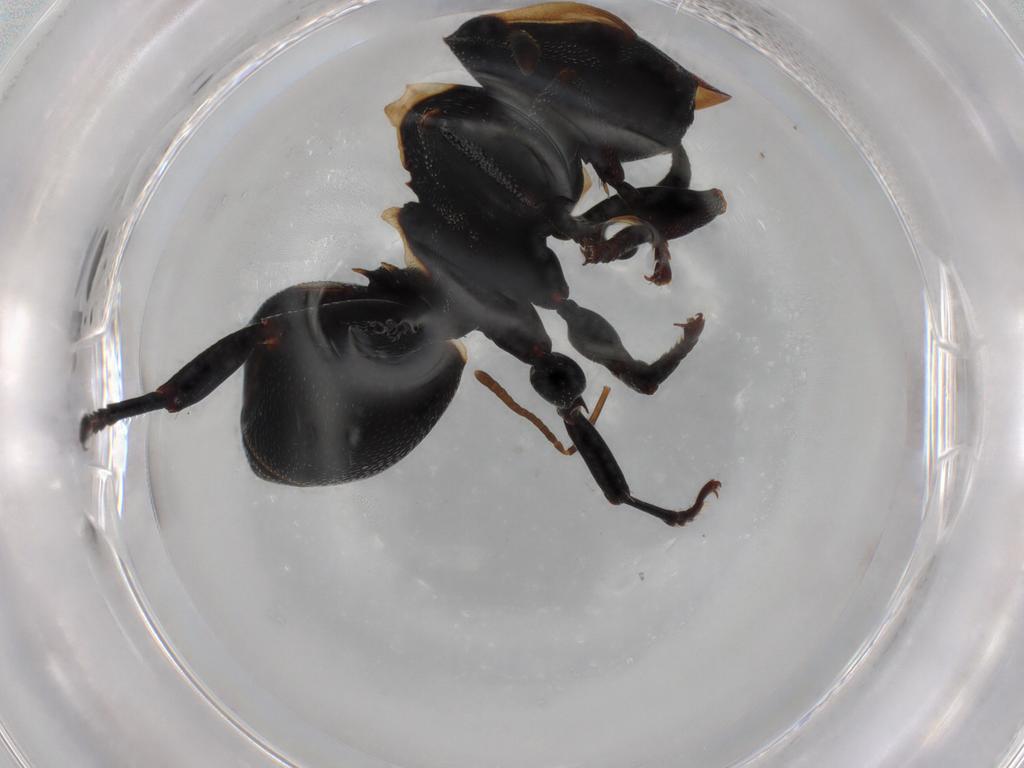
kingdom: Animalia
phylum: Arthropoda
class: Insecta
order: Hymenoptera
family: Formicidae
